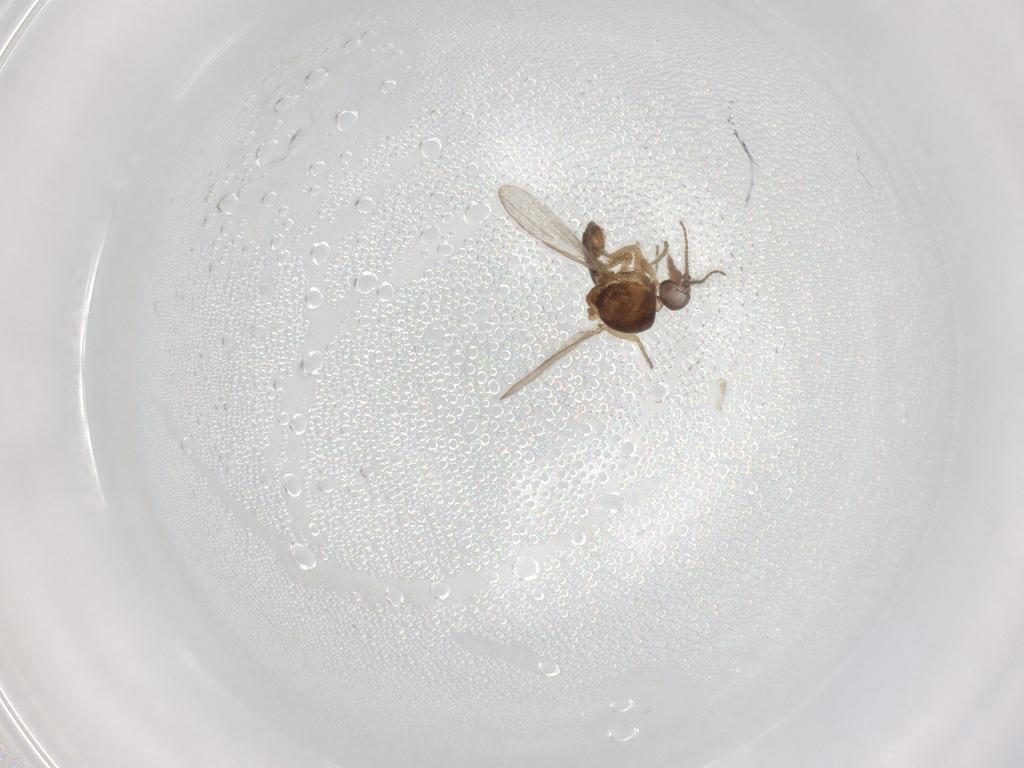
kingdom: Animalia
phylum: Arthropoda
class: Insecta
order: Diptera
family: Ceratopogonidae
